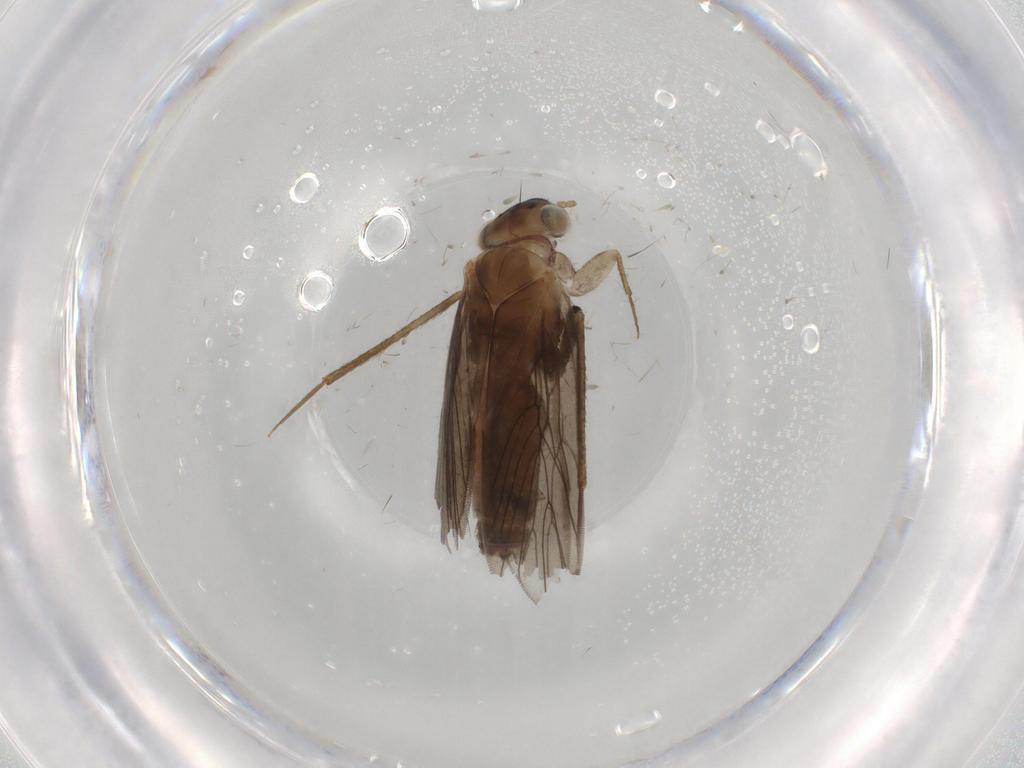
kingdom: Animalia
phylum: Arthropoda
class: Insecta
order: Psocodea
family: Lepidopsocidae
